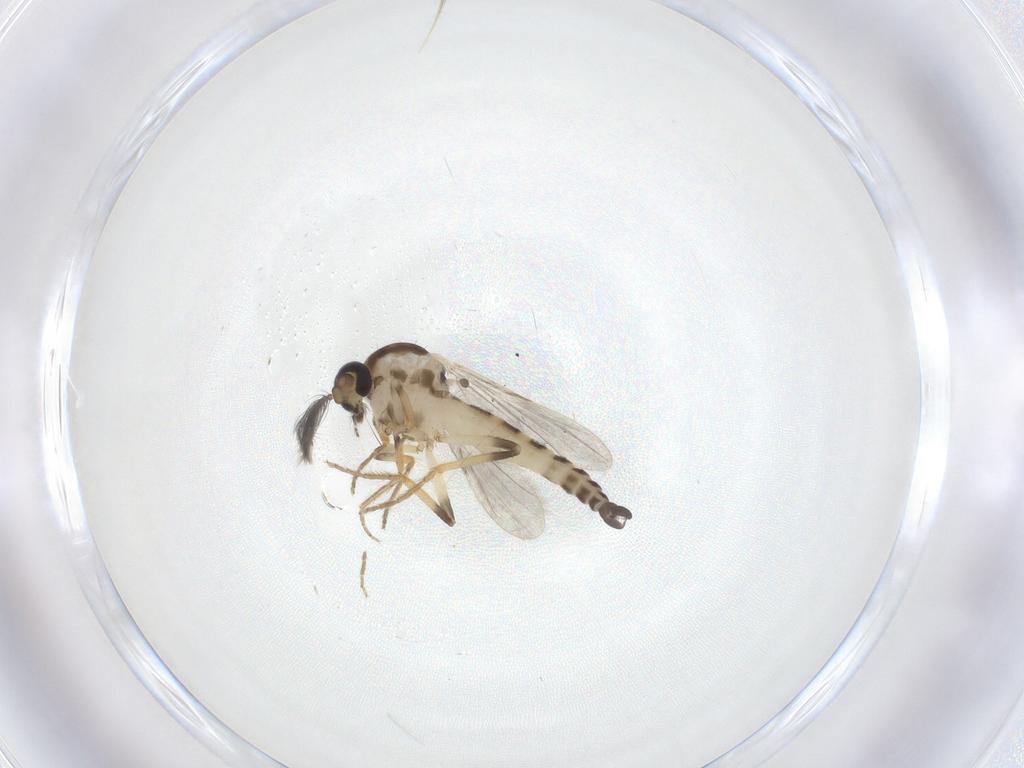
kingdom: Animalia
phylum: Arthropoda
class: Insecta
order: Diptera
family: Ceratopogonidae
